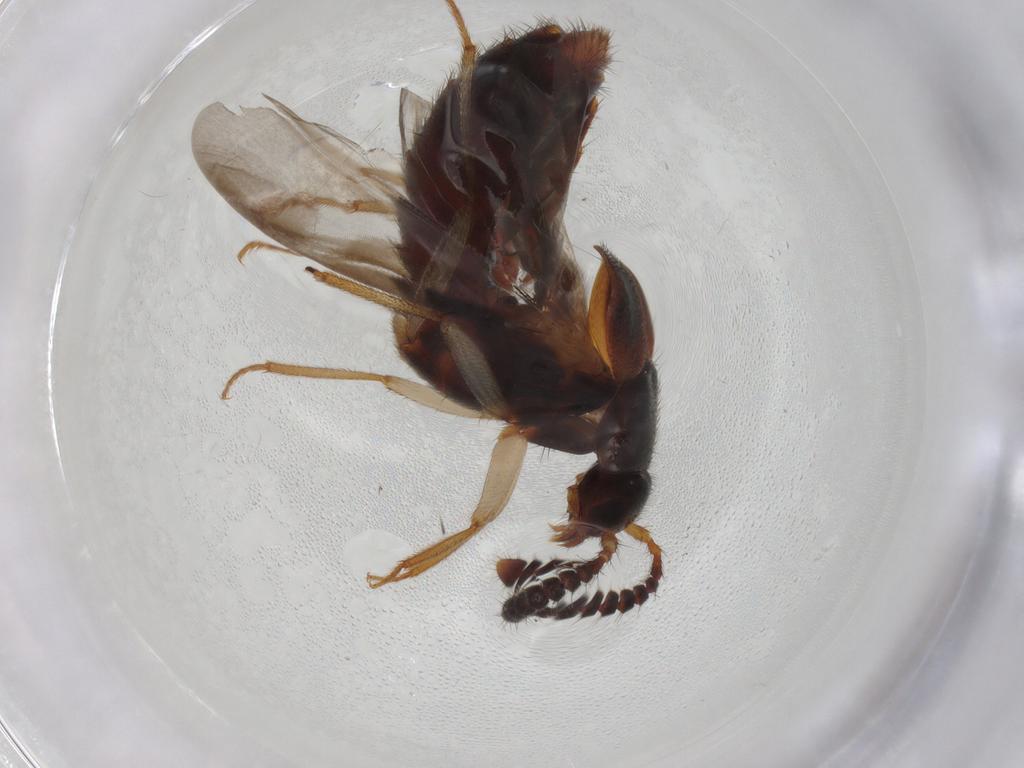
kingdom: Animalia
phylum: Arthropoda
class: Insecta
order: Coleoptera
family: Staphylinidae
